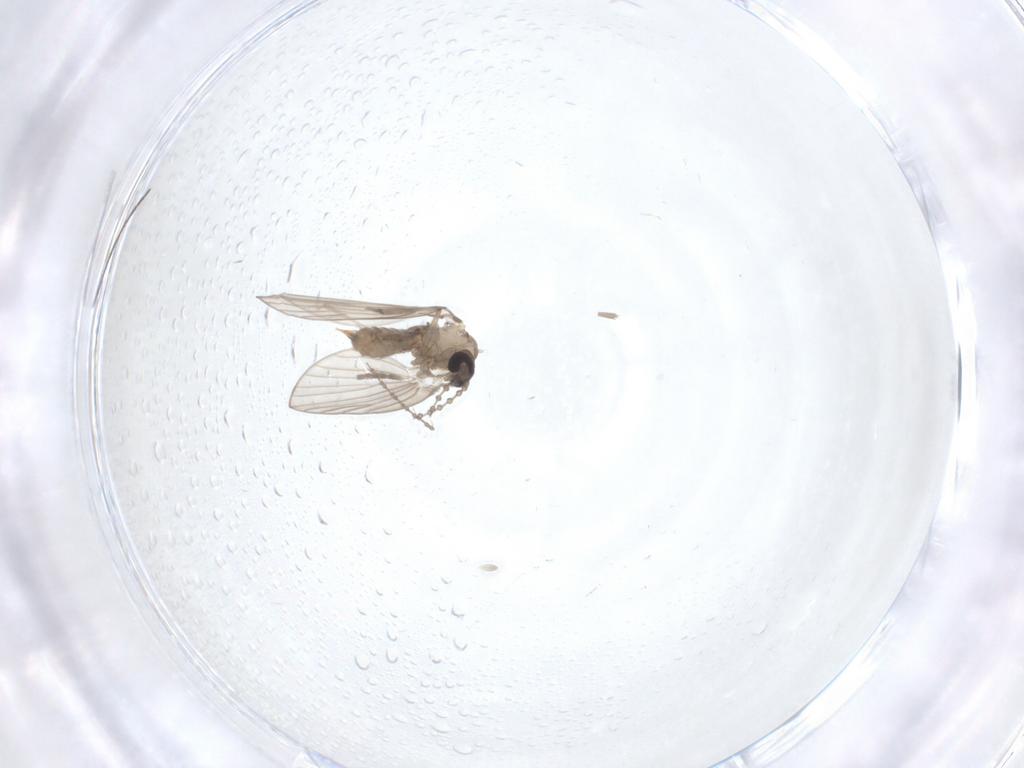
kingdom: Animalia
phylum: Arthropoda
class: Insecta
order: Diptera
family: Psychodidae
